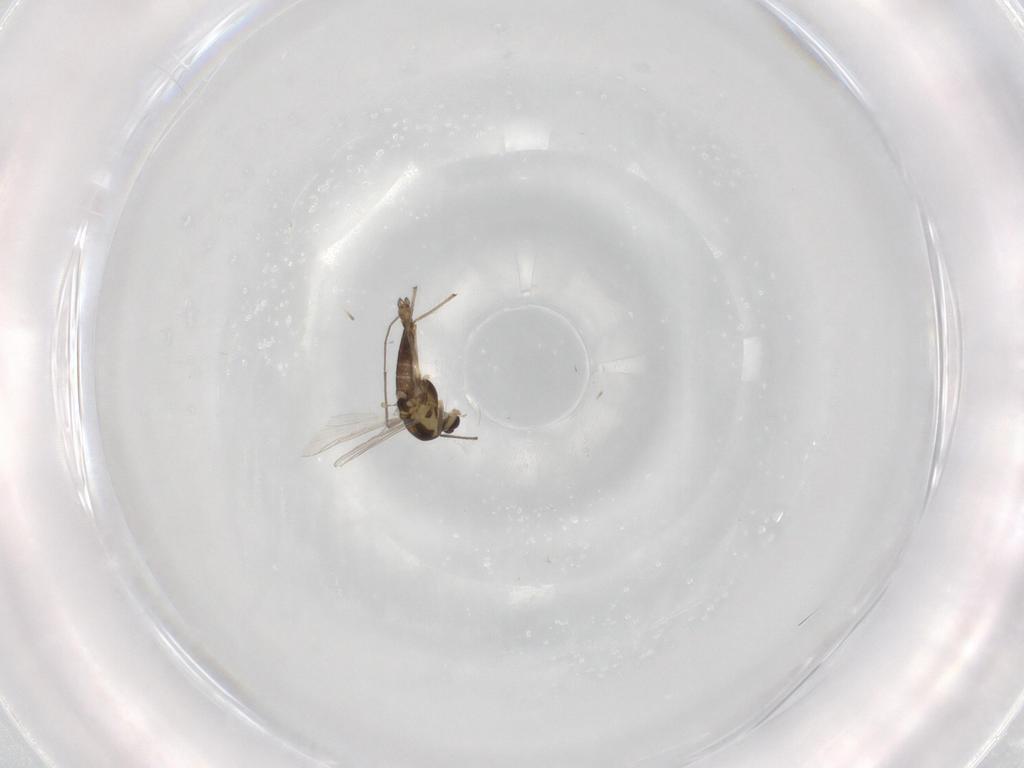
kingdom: Animalia
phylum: Arthropoda
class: Insecta
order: Diptera
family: Chironomidae
